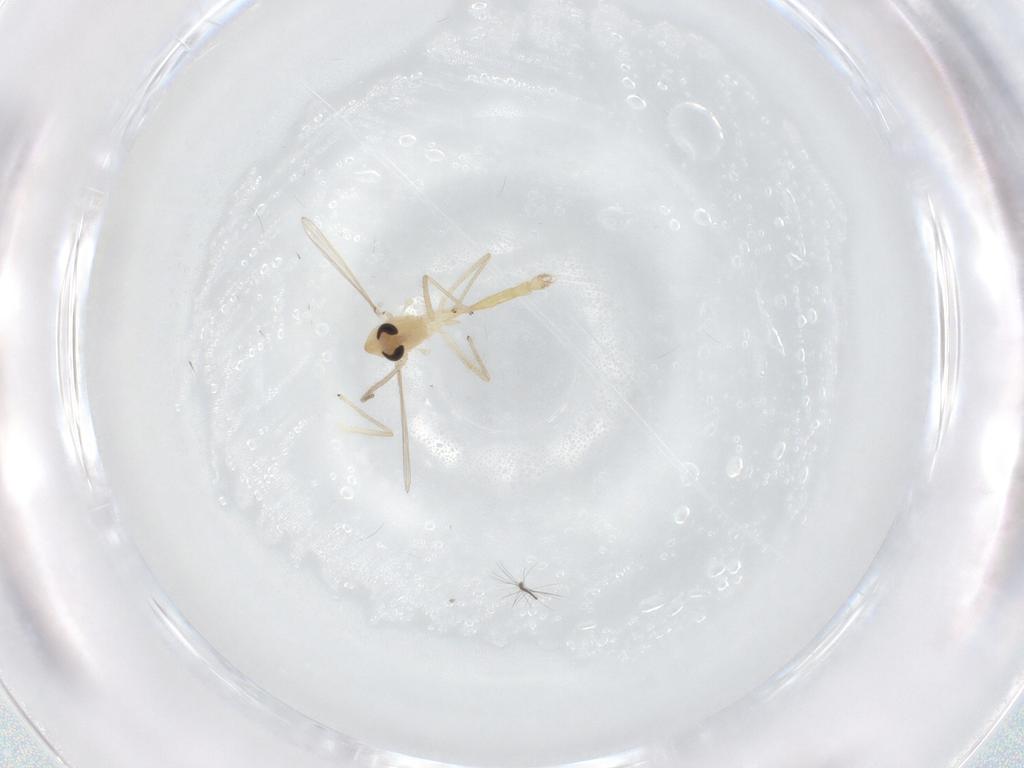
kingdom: Animalia
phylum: Arthropoda
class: Insecta
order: Diptera
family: Chironomidae
